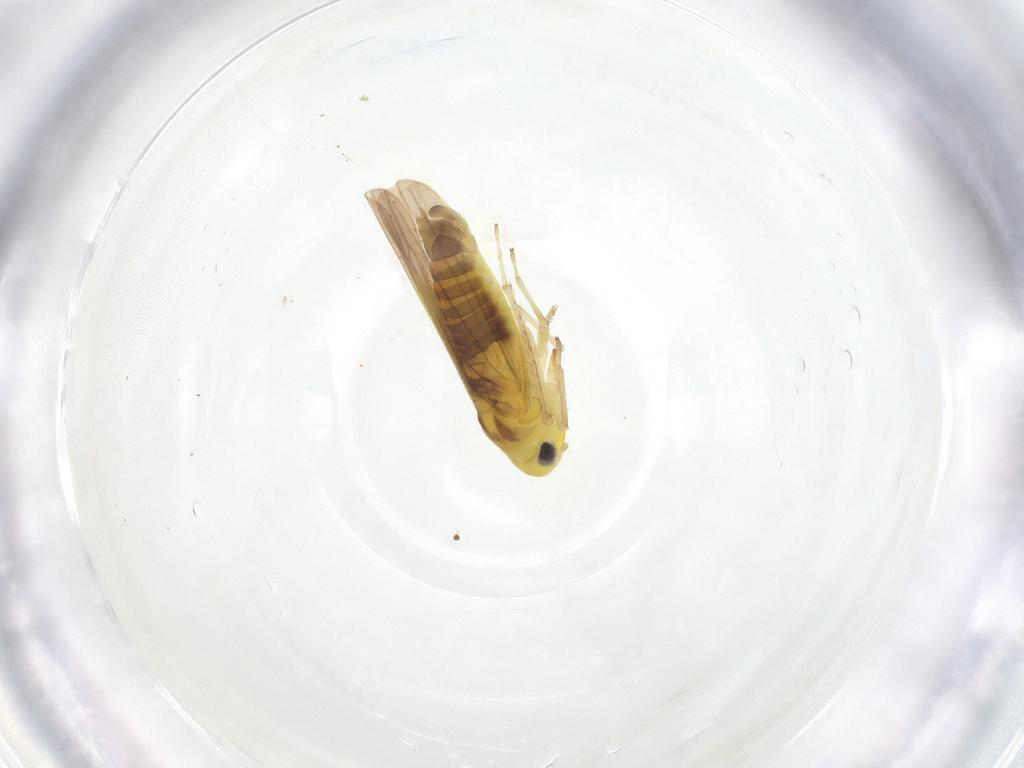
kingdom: Animalia
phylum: Arthropoda
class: Insecta
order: Hemiptera
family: Cicadellidae
